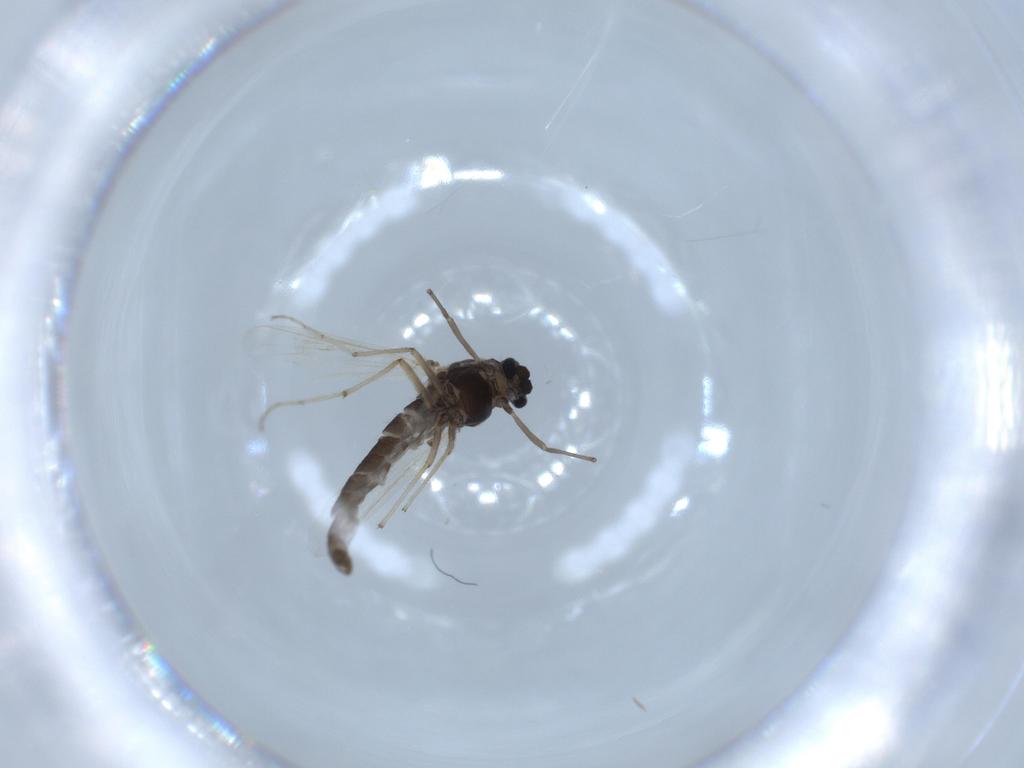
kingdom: Animalia
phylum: Arthropoda
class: Insecta
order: Diptera
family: Chironomidae
